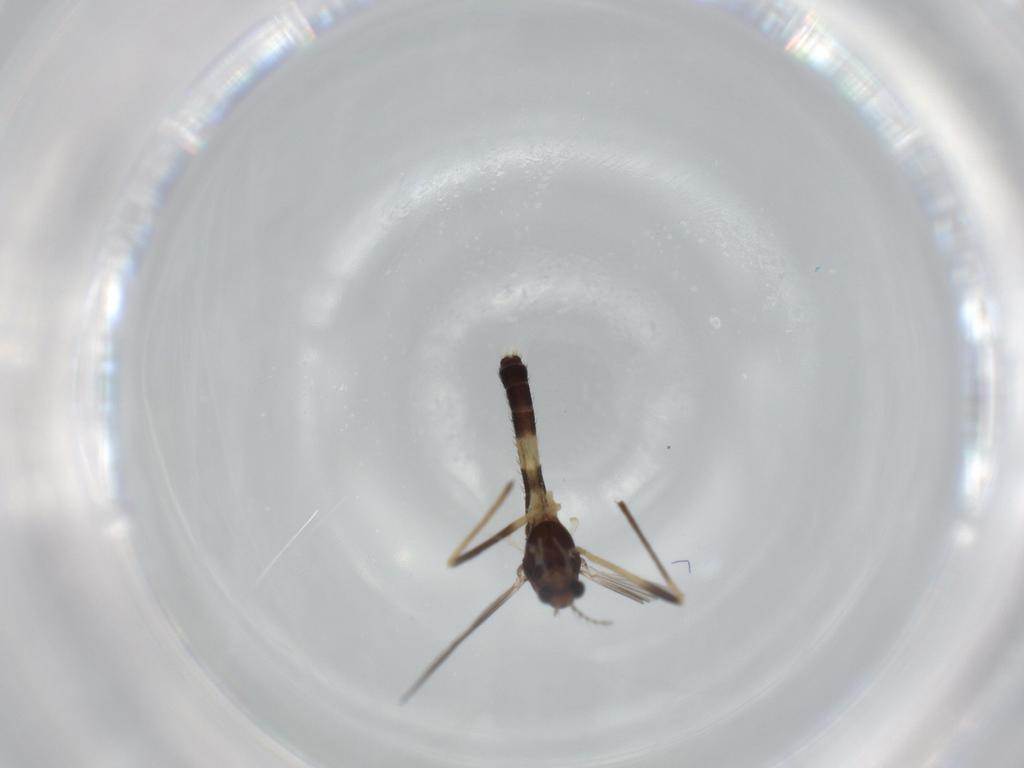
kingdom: Animalia
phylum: Arthropoda
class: Insecta
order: Diptera
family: Cecidomyiidae
